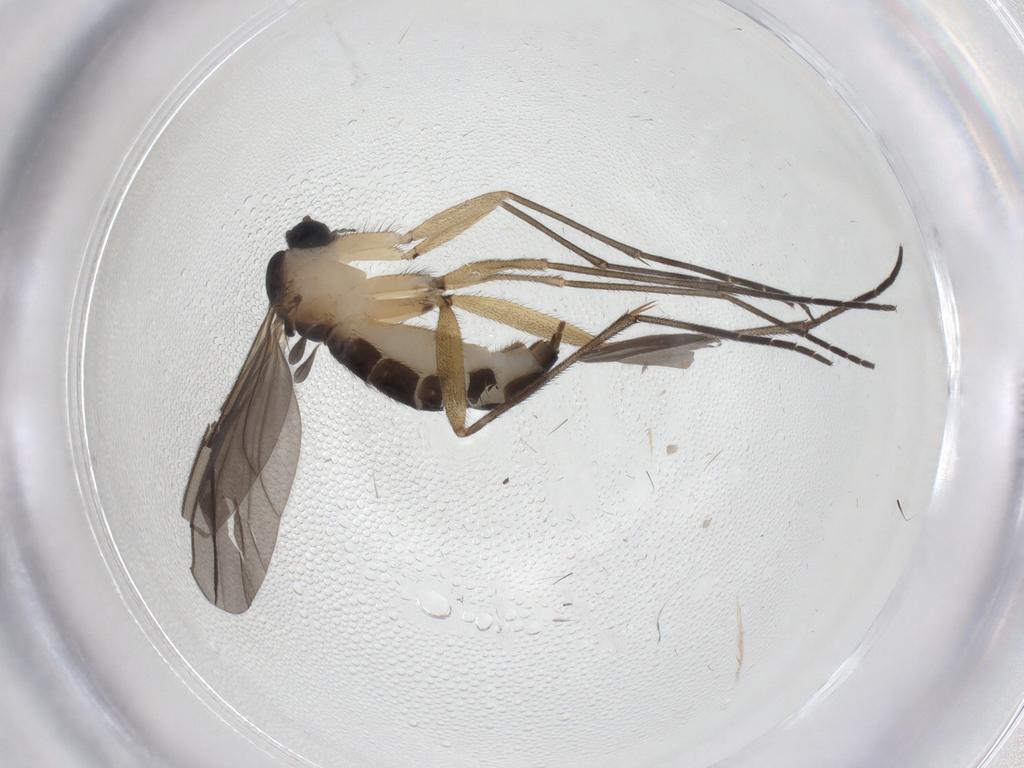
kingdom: Animalia
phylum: Arthropoda
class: Insecta
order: Diptera
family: Sciaridae
